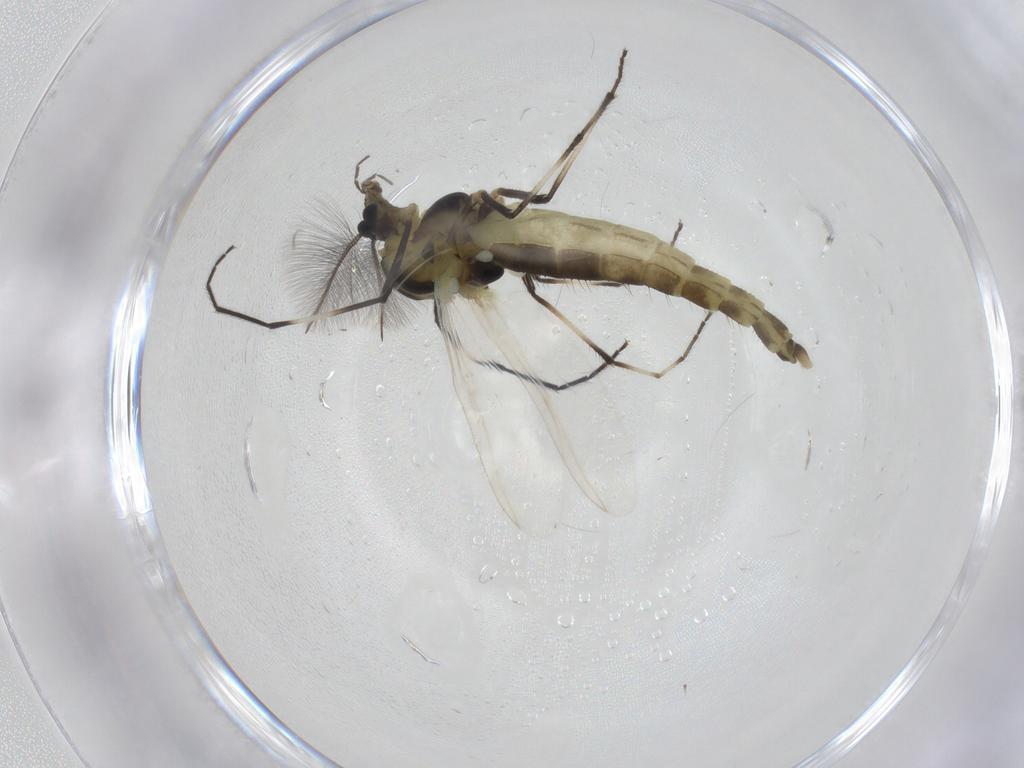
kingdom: Animalia
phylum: Arthropoda
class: Insecta
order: Diptera
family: Chironomidae
